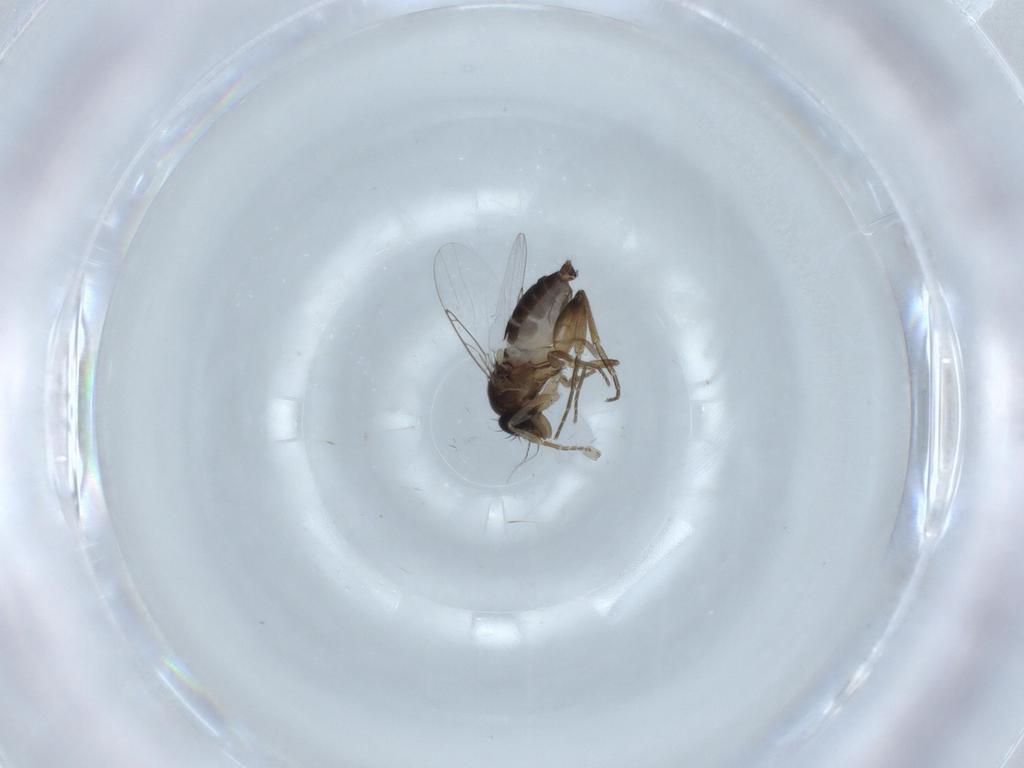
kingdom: Animalia
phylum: Arthropoda
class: Insecta
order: Diptera
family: Phoridae
